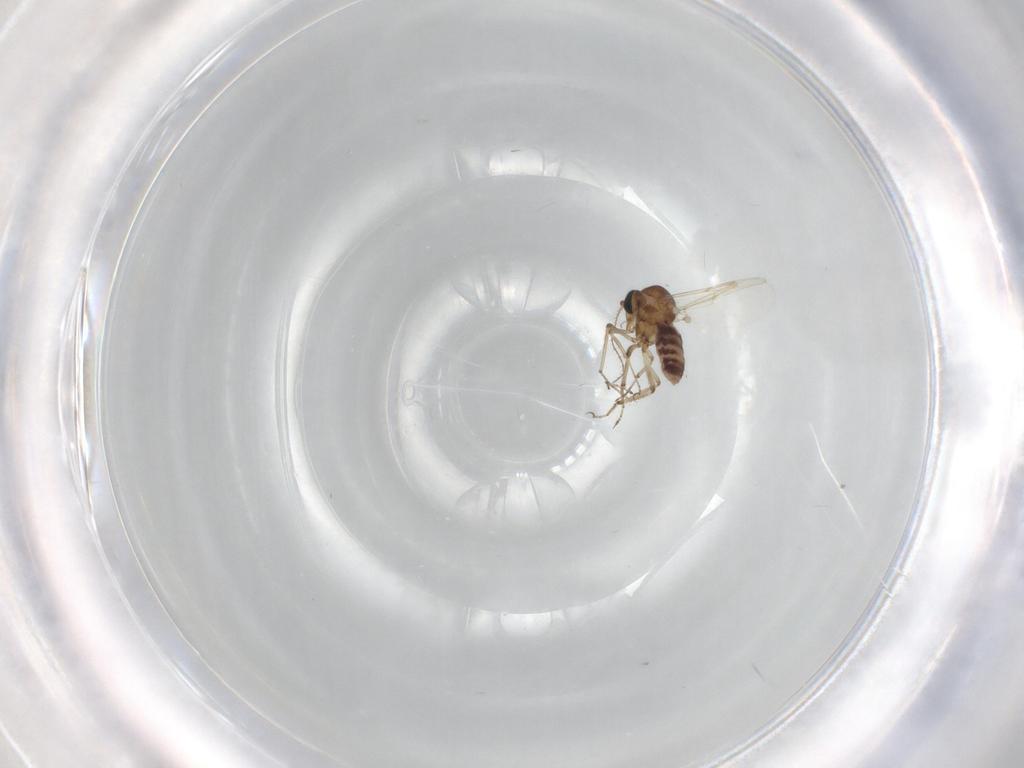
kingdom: Animalia
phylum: Arthropoda
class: Insecta
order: Diptera
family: Ceratopogonidae
